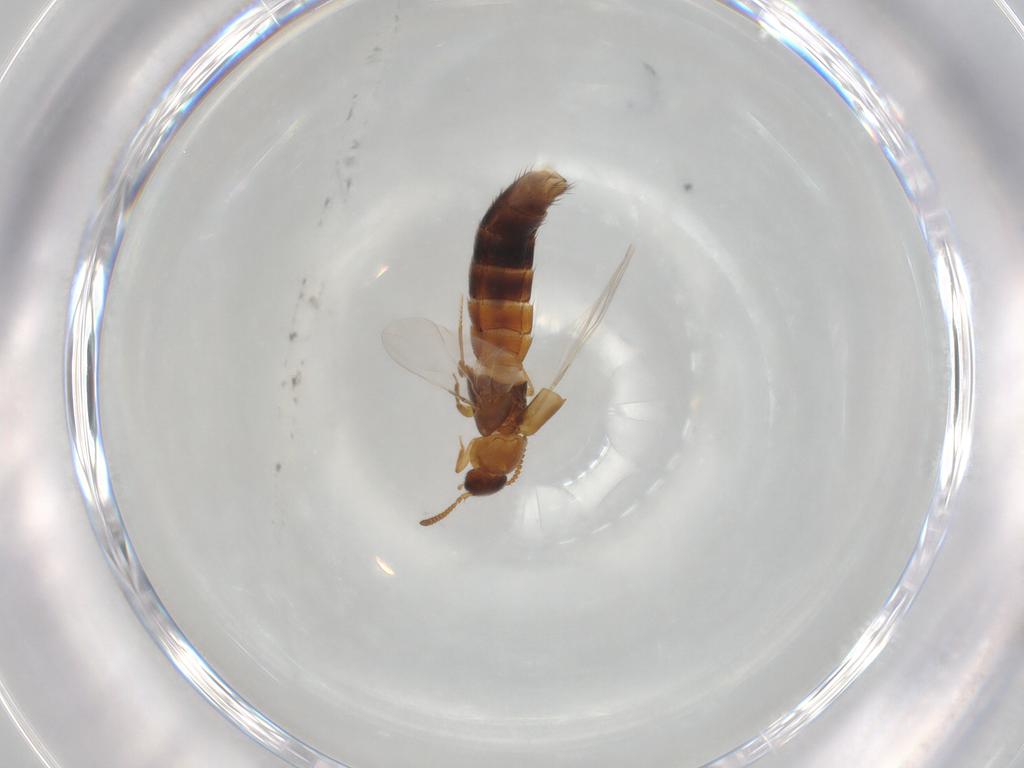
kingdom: Animalia
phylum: Arthropoda
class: Insecta
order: Coleoptera
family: Staphylinidae
